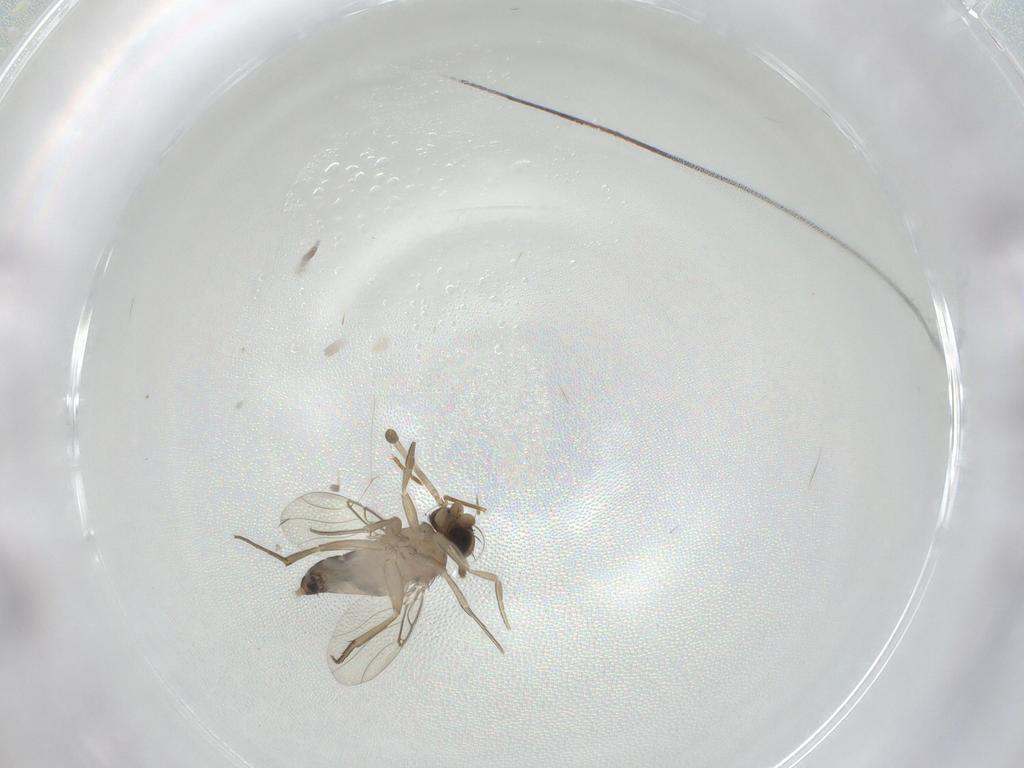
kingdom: Animalia
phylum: Arthropoda
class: Insecta
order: Diptera
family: Phoridae
